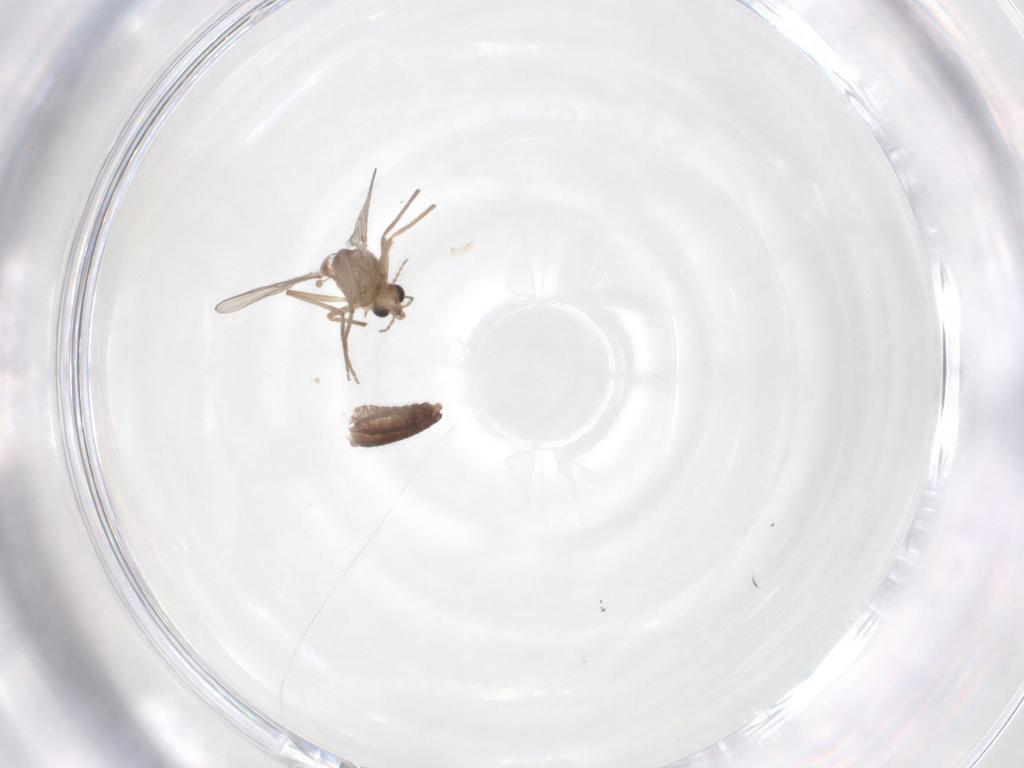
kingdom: Animalia
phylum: Arthropoda
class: Insecta
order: Diptera
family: Chironomidae
